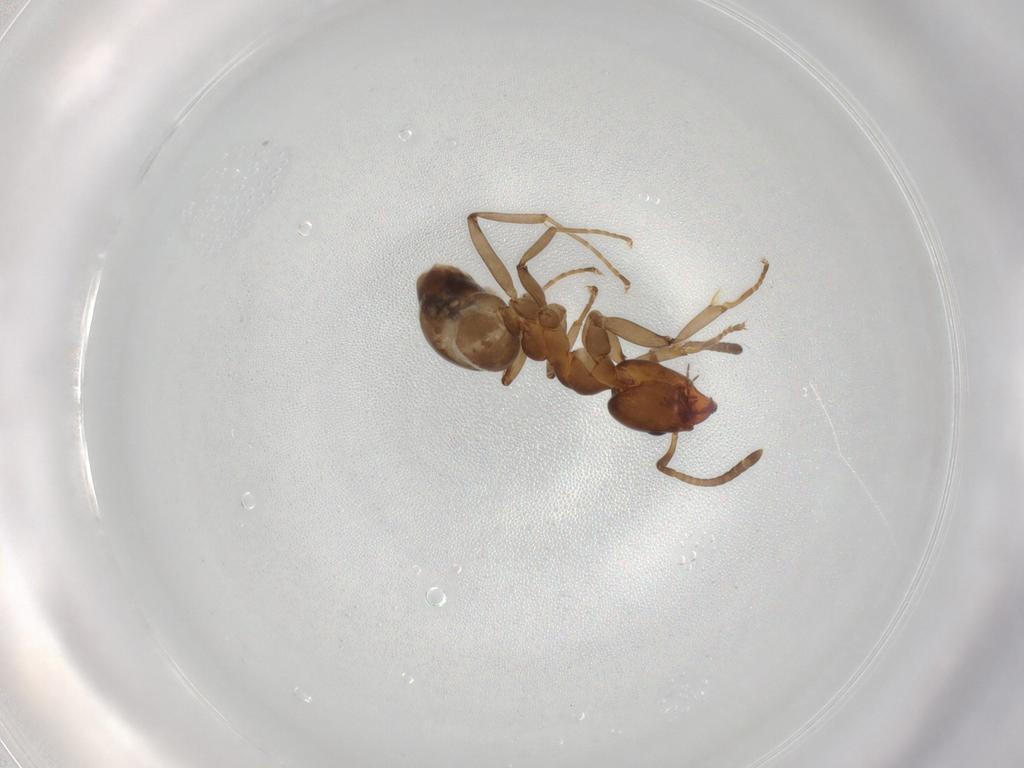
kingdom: Animalia
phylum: Arthropoda
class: Insecta
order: Hymenoptera
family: Formicidae
